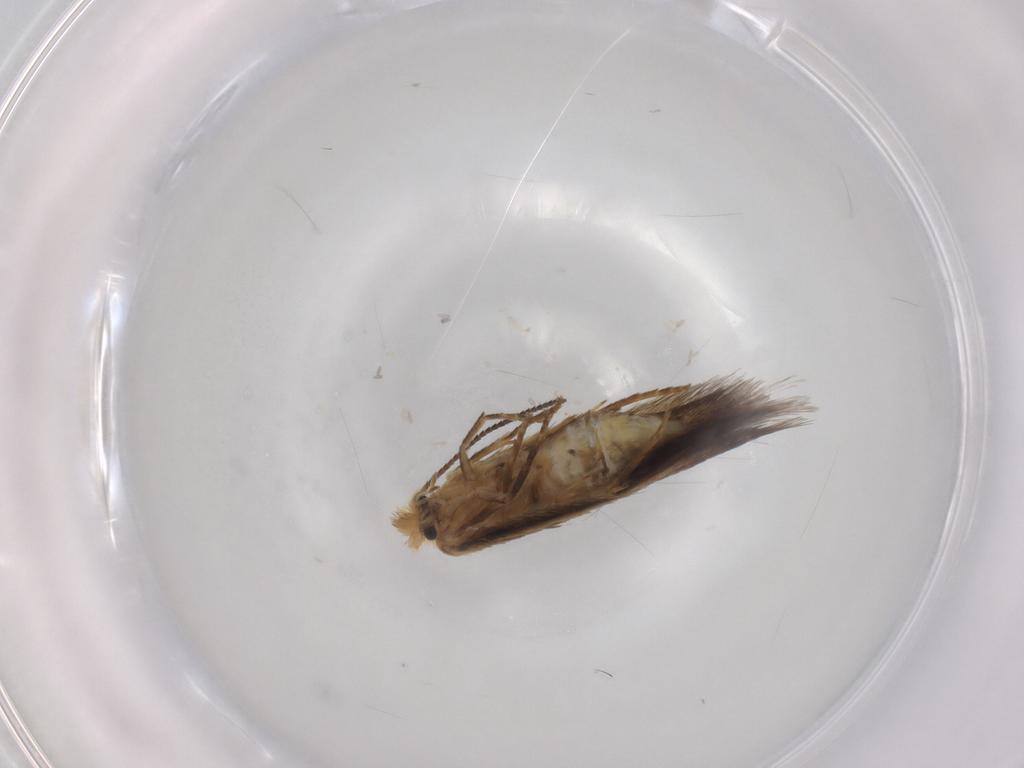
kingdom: Animalia
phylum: Arthropoda
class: Insecta
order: Lepidoptera
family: Nepticulidae
